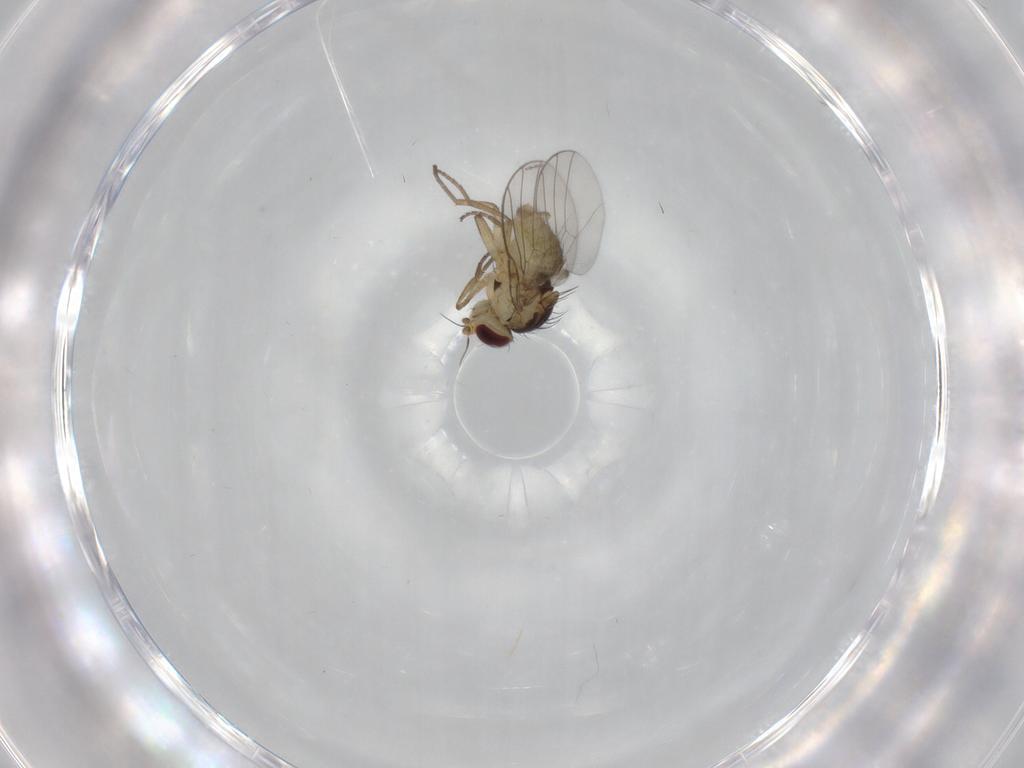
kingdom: Animalia
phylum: Arthropoda
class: Insecta
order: Diptera
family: Agromyzidae
